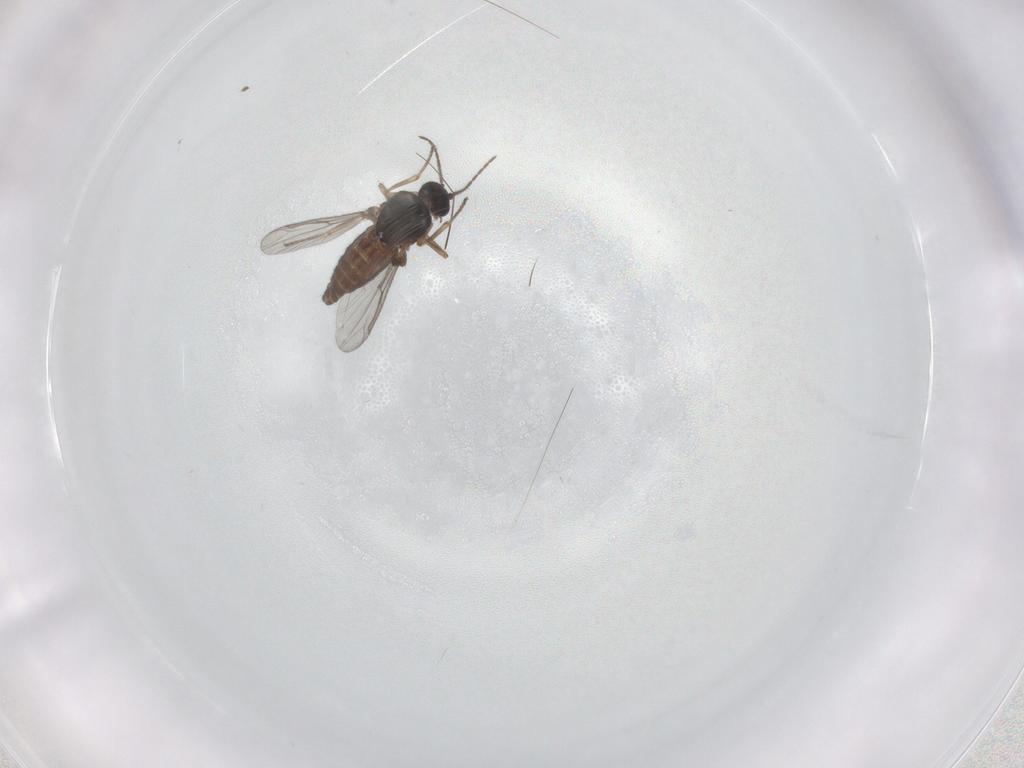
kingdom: Animalia
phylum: Arthropoda
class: Insecta
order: Diptera
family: Ceratopogonidae
